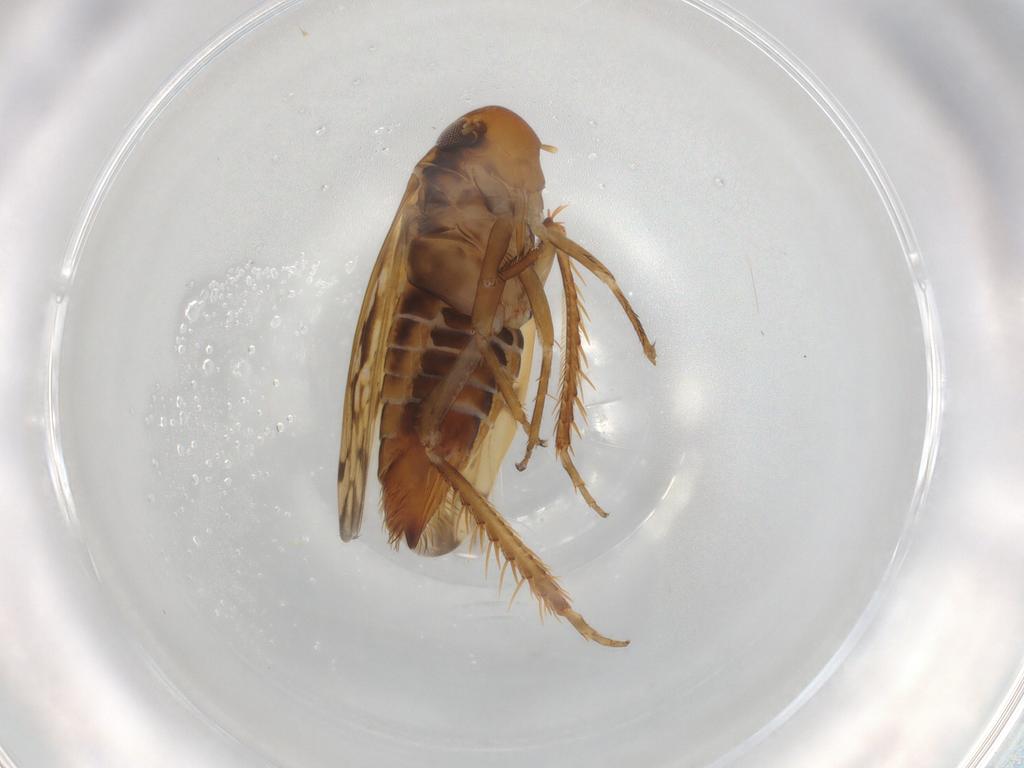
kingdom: Animalia
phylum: Arthropoda
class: Insecta
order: Hemiptera
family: Cicadellidae
